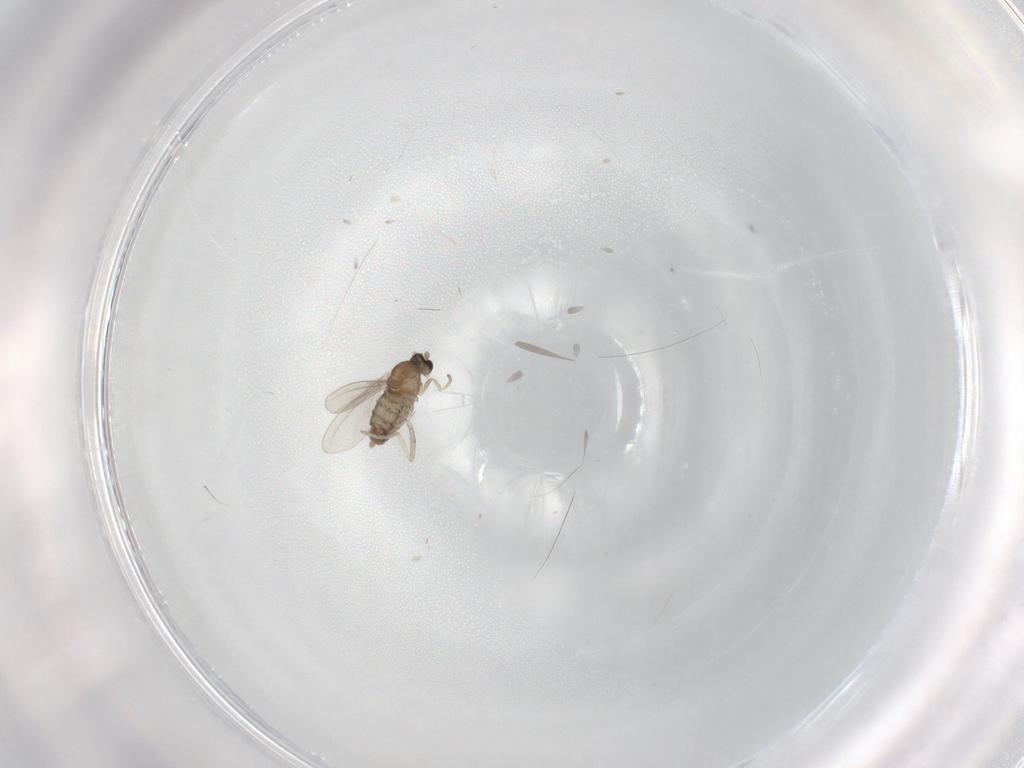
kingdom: Animalia
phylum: Arthropoda
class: Insecta
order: Diptera
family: Cecidomyiidae
